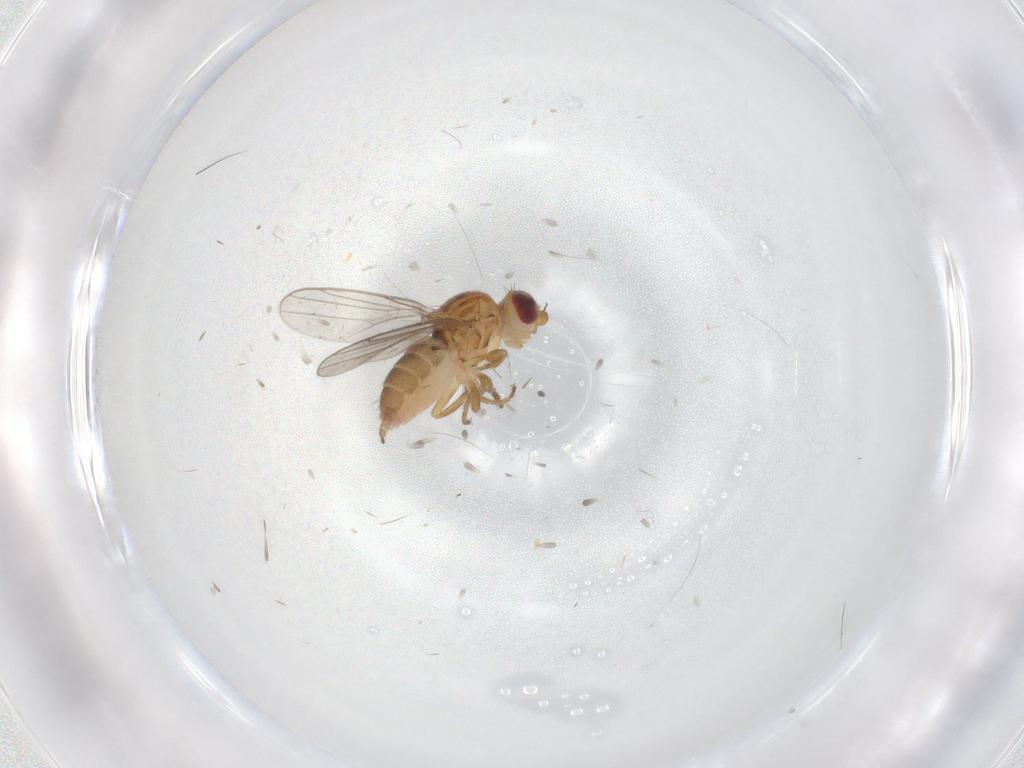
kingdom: Animalia
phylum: Arthropoda
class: Insecta
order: Diptera
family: Chloropidae
